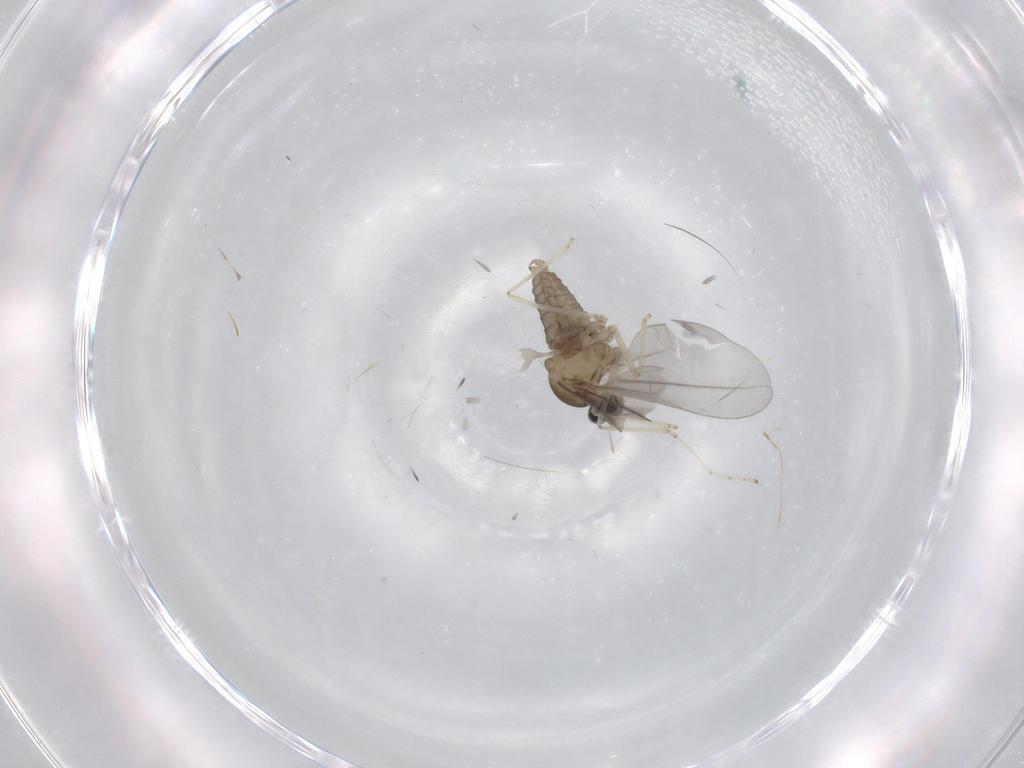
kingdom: Animalia
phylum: Arthropoda
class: Insecta
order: Diptera
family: Cecidomyiidae
